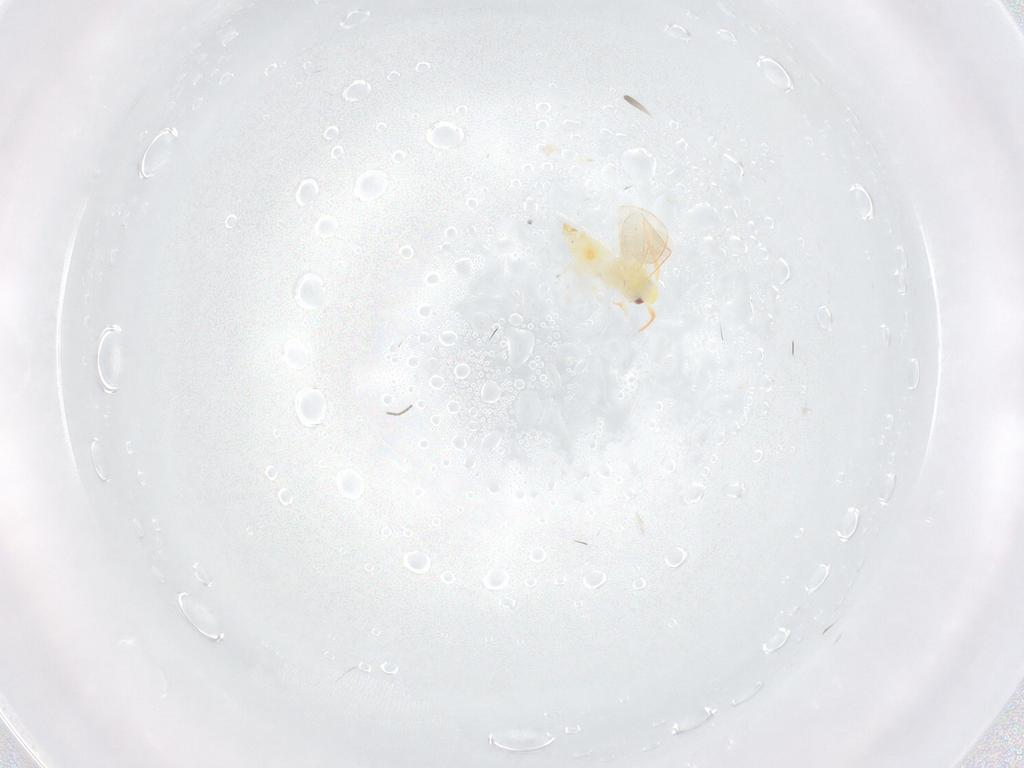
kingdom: Animalia
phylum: Arthropoda
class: Insecta
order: Hemiptera
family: Aleyrodidae
